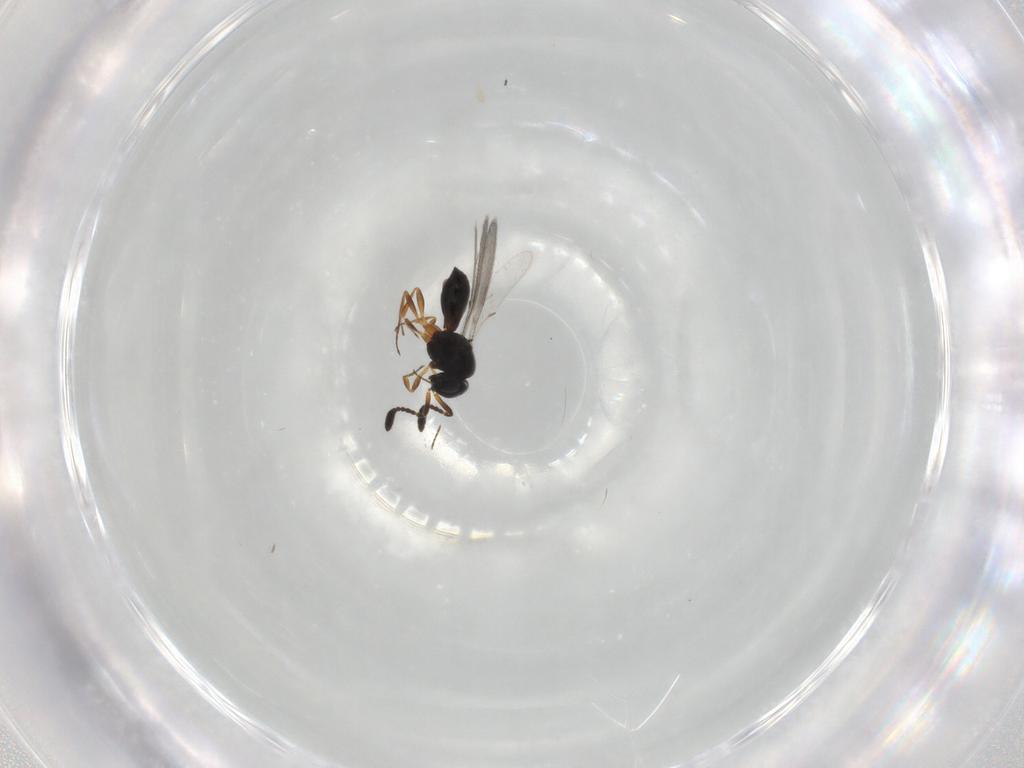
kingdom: Animalia
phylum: Arthropoda
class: Insecta
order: Hymenoptera
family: Scelionidae
